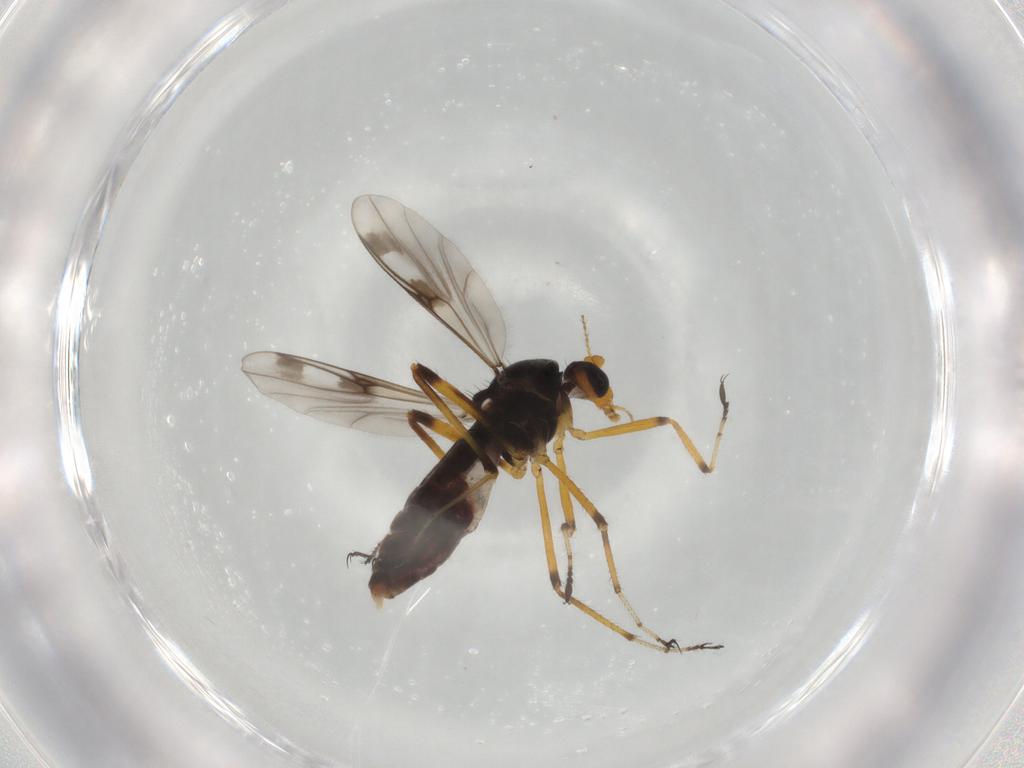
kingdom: Animalia
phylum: Arthropoda
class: Insecta
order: Diptera
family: Ceratopogonidae
